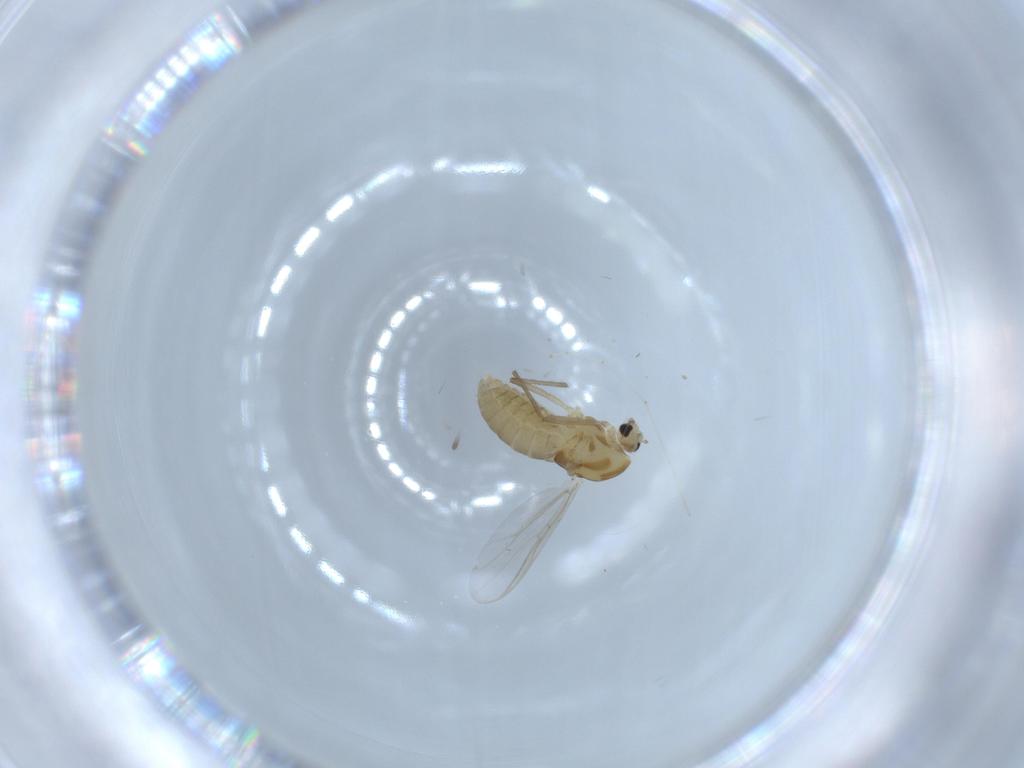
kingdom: Animalia
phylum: Arthropoda
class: Insecta
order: Diptera
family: Chironomidae
